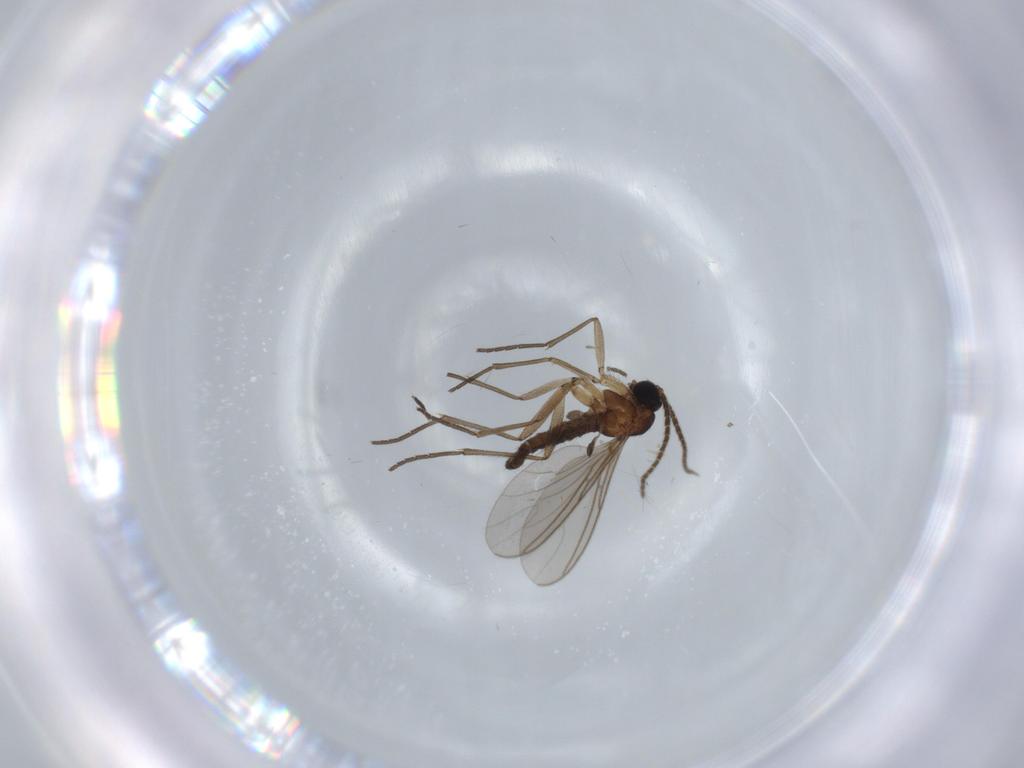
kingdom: Animalia
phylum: Arthropoda
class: Insecta
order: Diptera
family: Sciaridae
